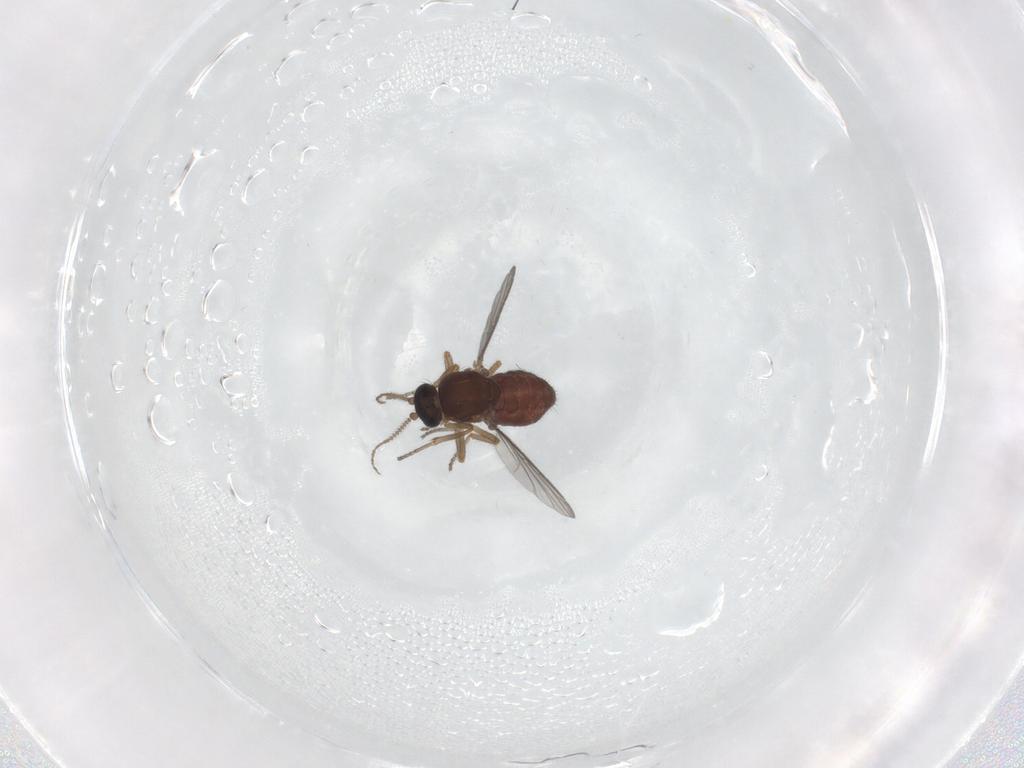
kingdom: Animalia
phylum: Arthropoda
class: Insecta
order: Diptera
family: Ceratopogonidae
